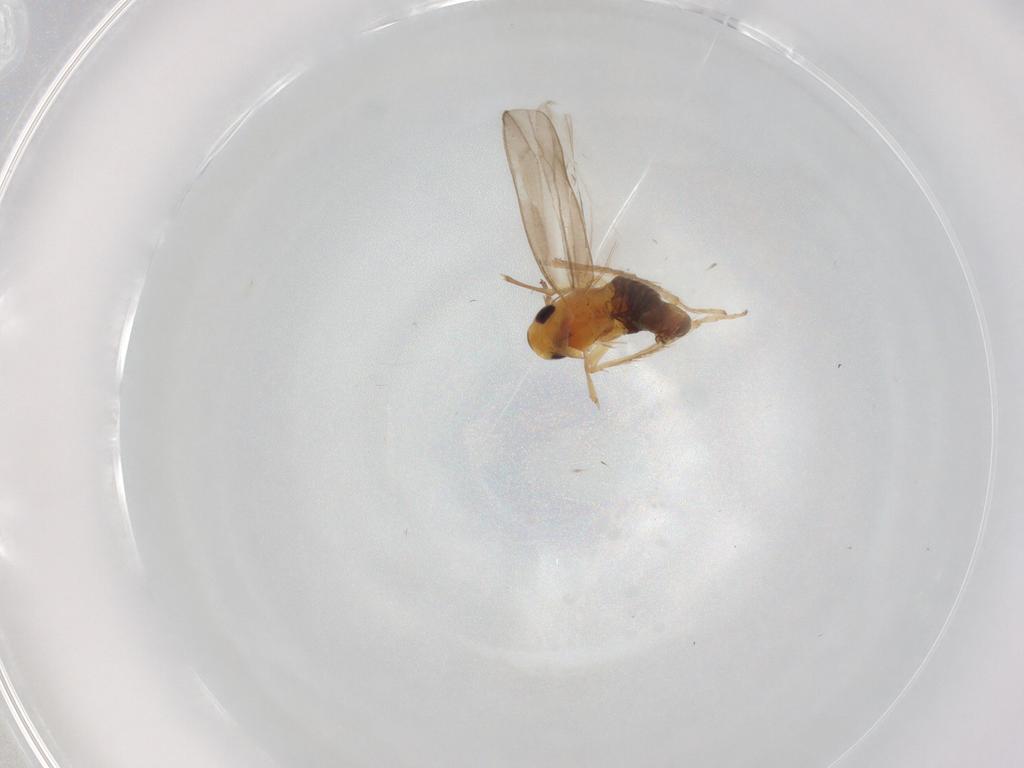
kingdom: Animalia
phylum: Arthropoda
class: Insecta
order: Hemiptera
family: Cicadellidae
